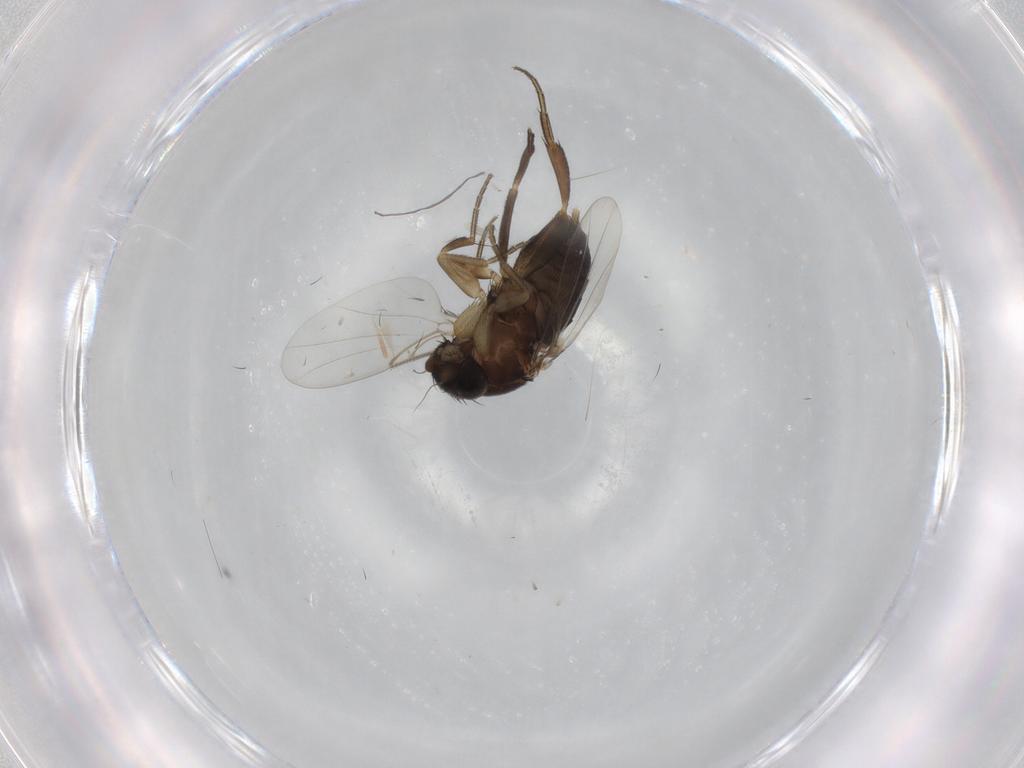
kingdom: Animalia
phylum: Arthropoda
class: Insecta
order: Diptera
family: Phoridae
